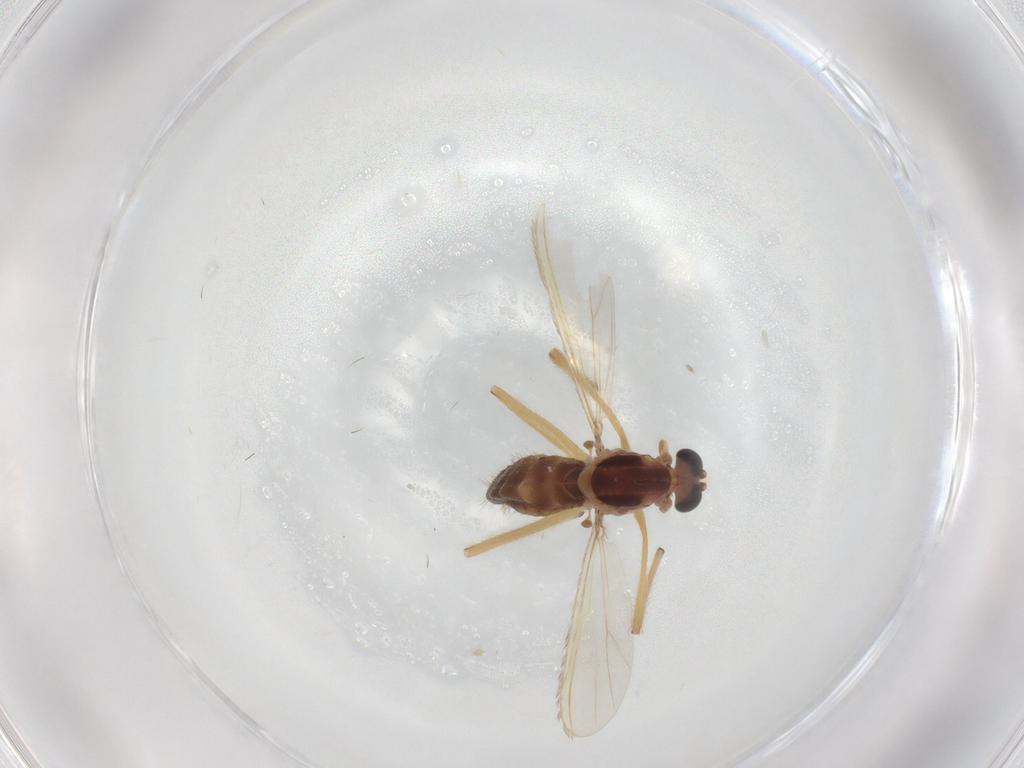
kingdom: Animalia
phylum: Arthropoda
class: Insecta
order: Diptera
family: Chironomidae
